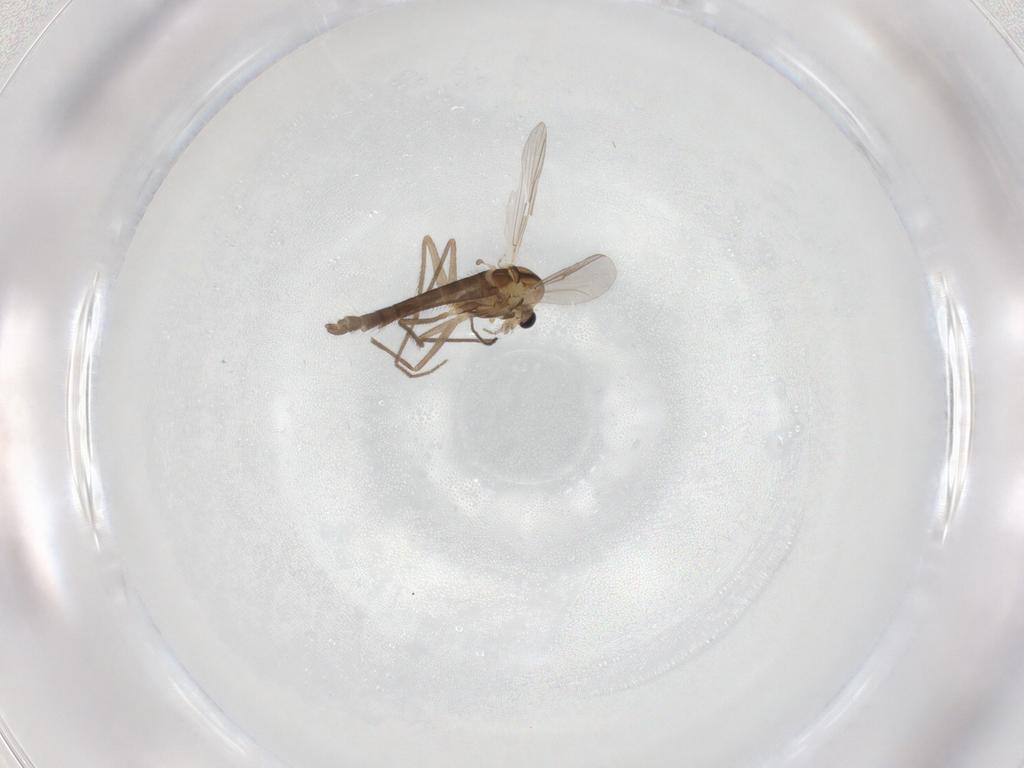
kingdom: Animalia
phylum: Arthropoda
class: Insecta
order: Diptera
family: Chironomidae
